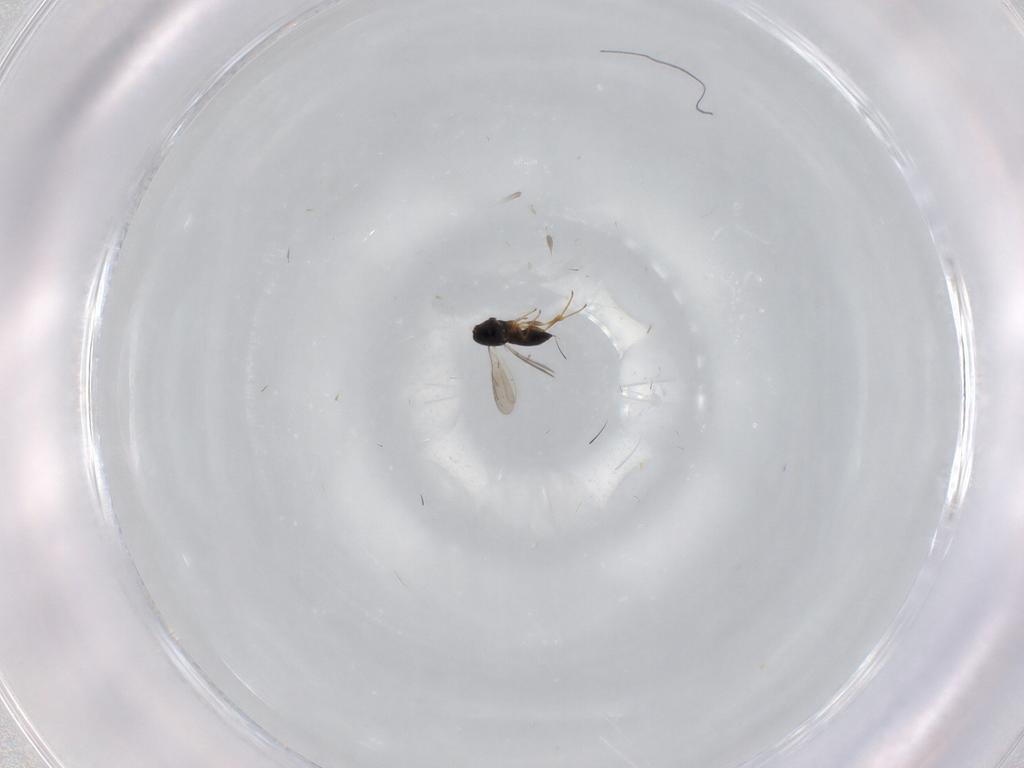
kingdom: Animalia
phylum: Arthropoda
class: Insecta
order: Hymenoptera
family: Scelionidae
